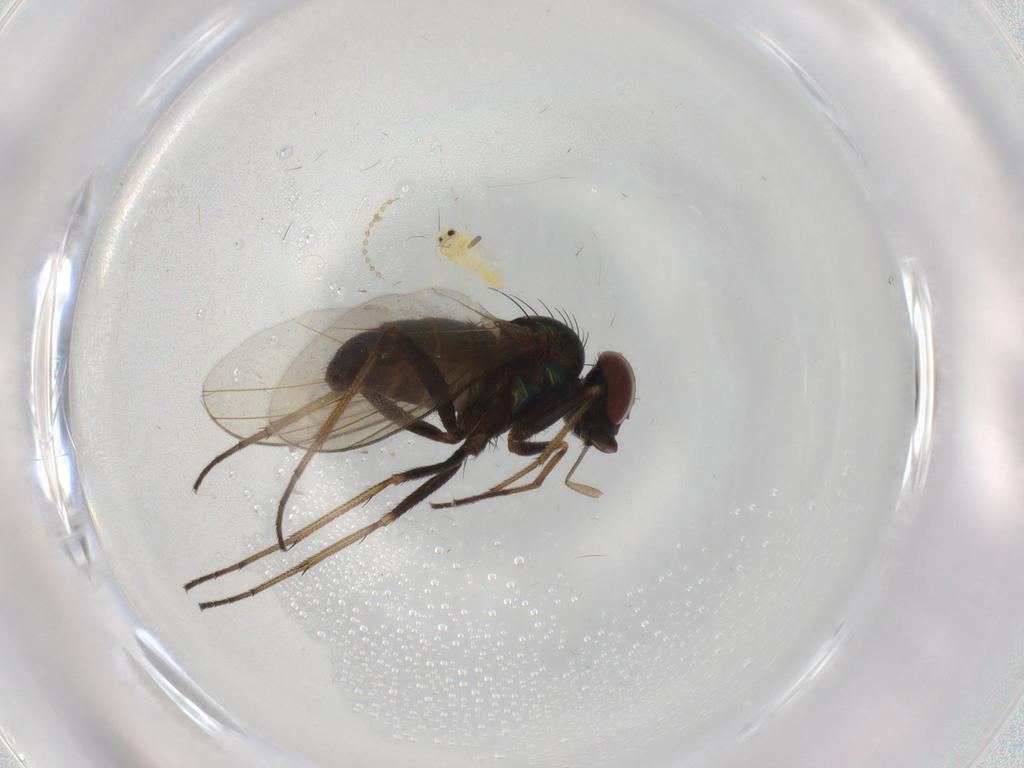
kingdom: Animalia
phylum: Arthropoda
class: Insecta
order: Diptera
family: Dolichopodidae
